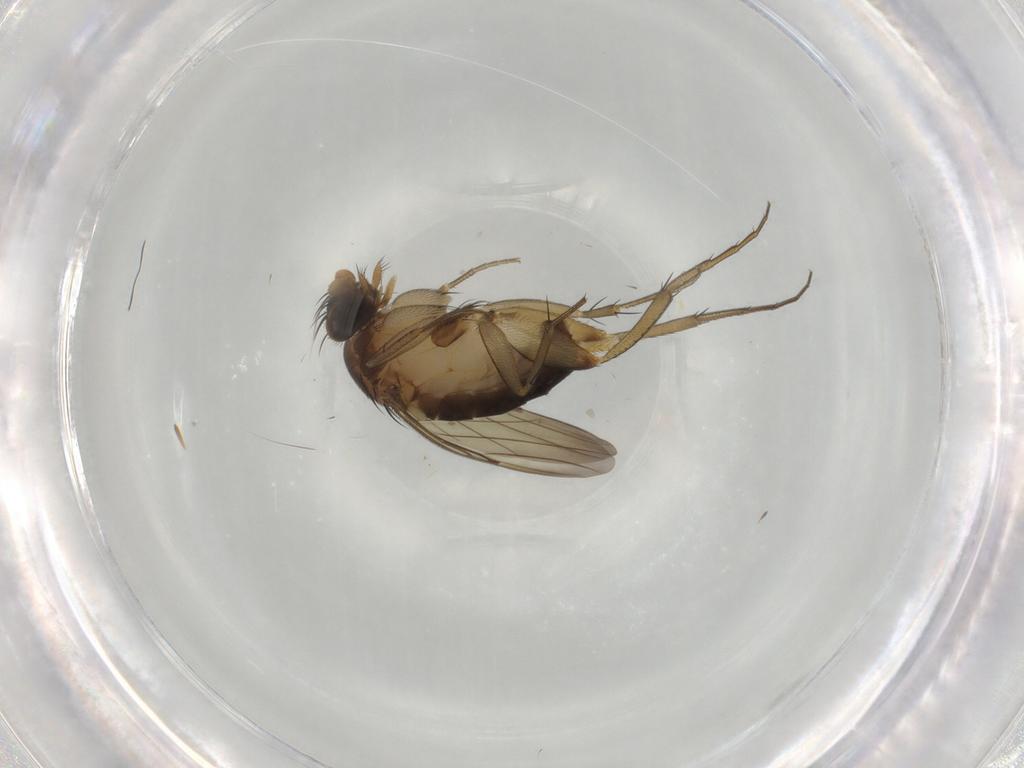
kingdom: Animalia
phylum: Arthropoda
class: Insecta
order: Diptera
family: Phoridae
